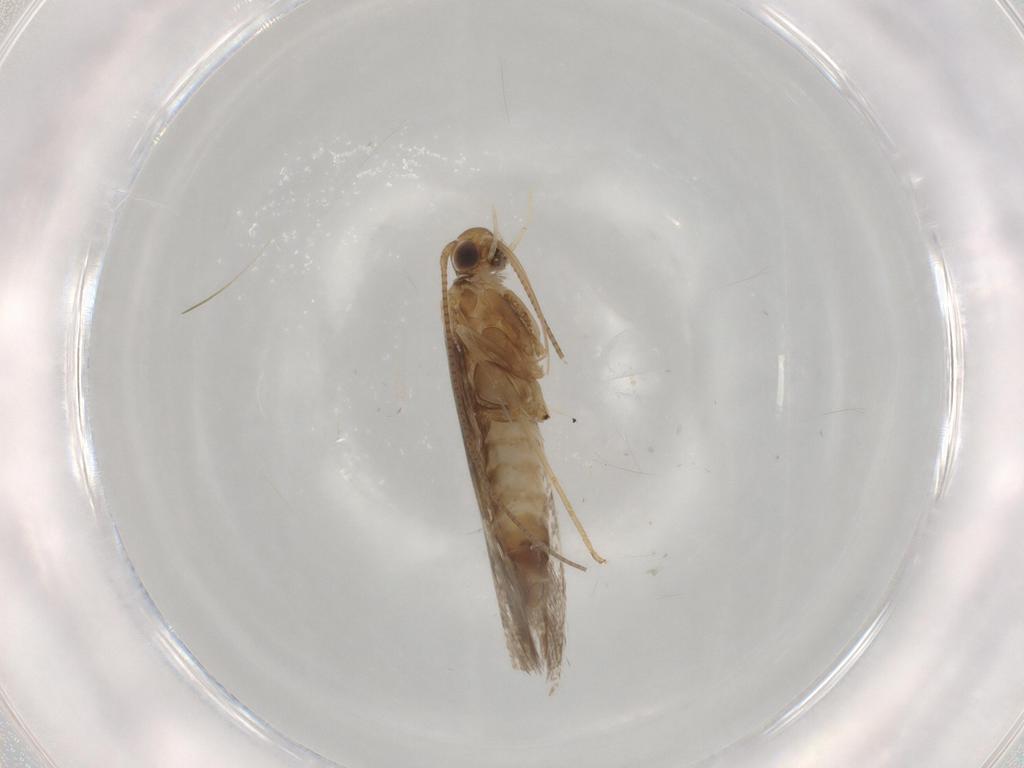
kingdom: Animalia
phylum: Arthropoda
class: Insecta
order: Lepidoptera
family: Gracillariidae
